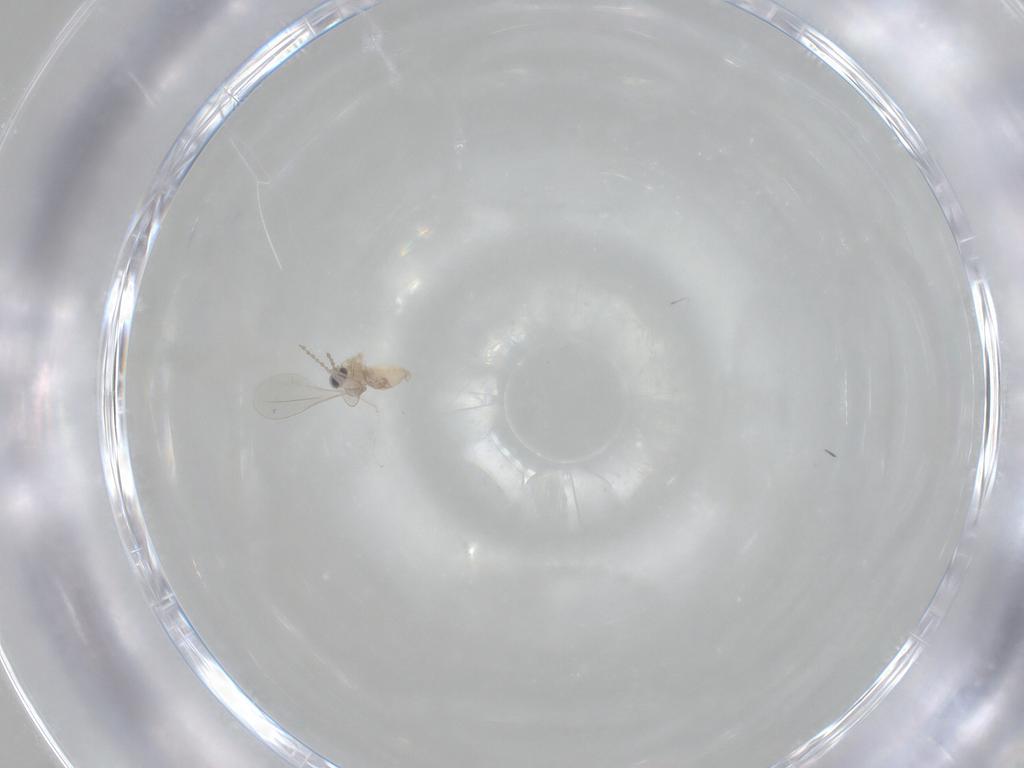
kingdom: Animalia
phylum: Arthropoda
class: Insecta
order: Diptera
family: Cecidomyiidae
